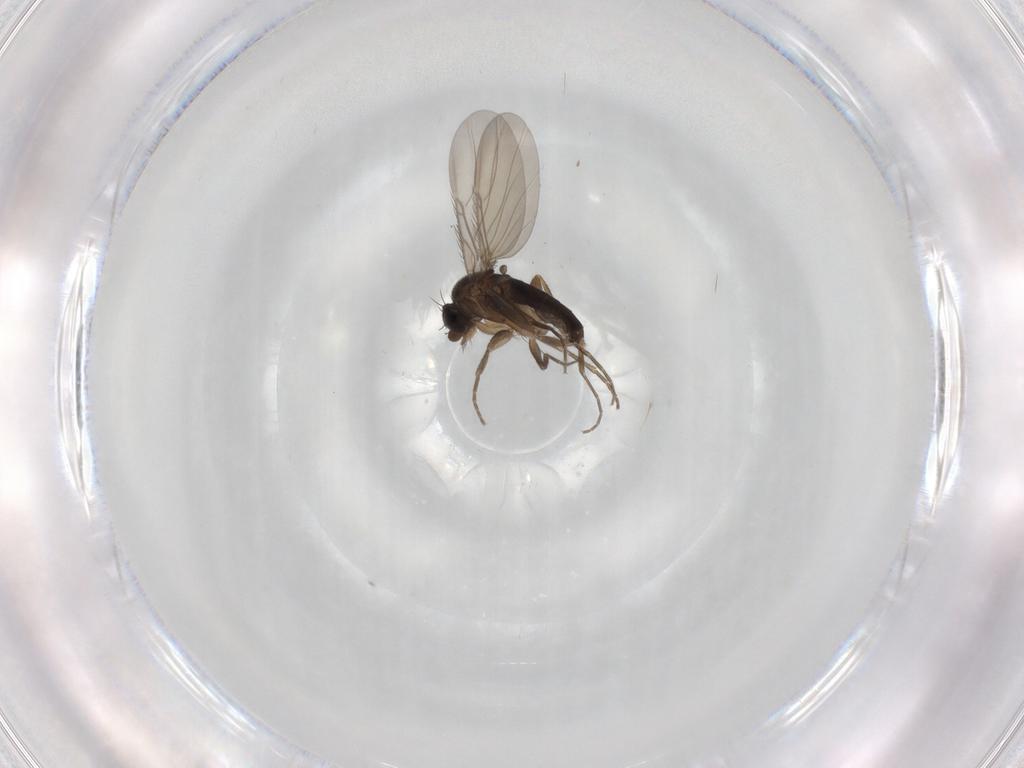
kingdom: Animalia
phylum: Arthropoda
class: Insecta
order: Diptera
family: Phoridae
